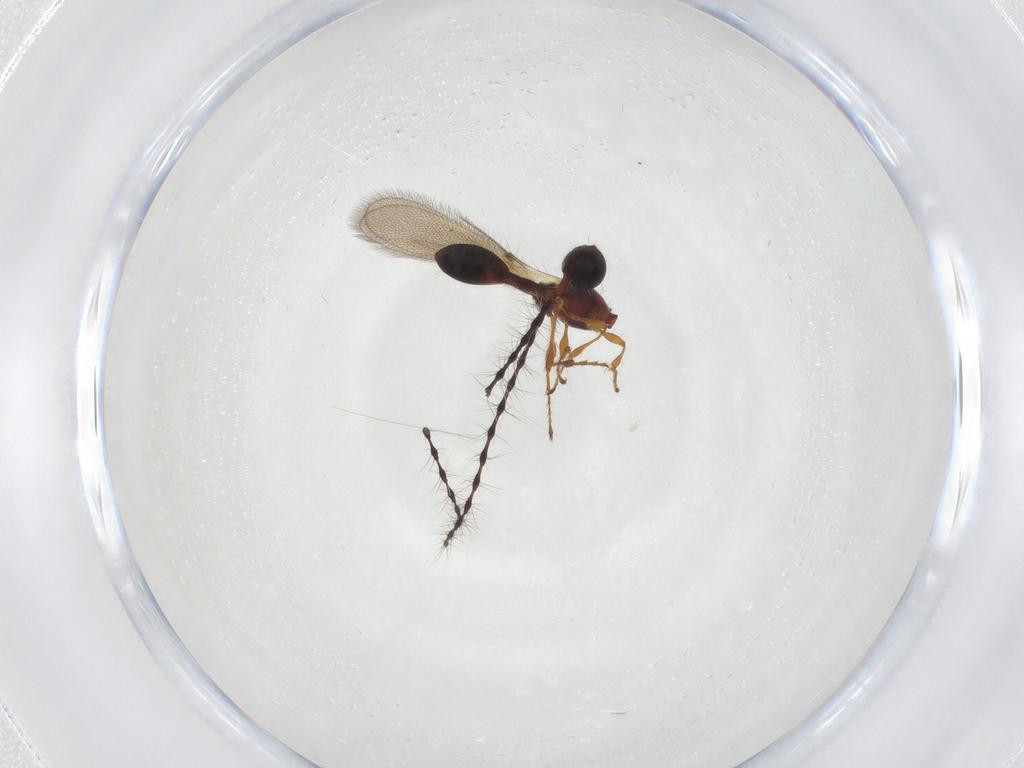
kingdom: Animalia
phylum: Arthropoda
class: Insecta
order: Hymenoptera
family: Diapriidae
